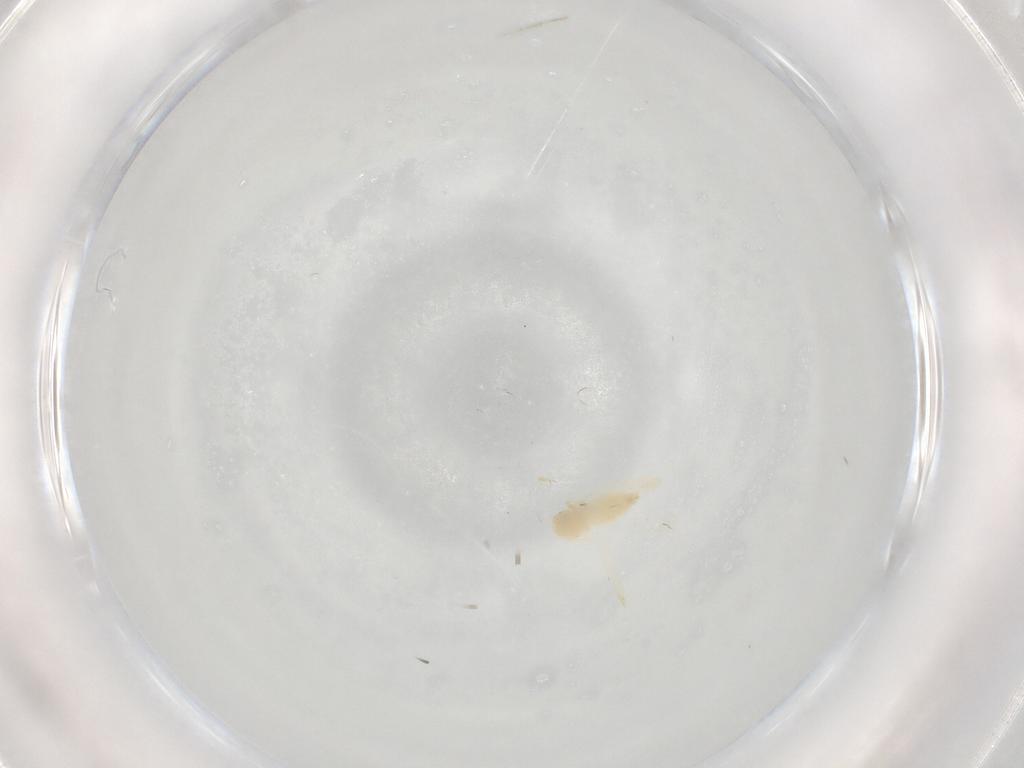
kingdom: Animalia
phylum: Arthropoda
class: Insecta
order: Hemiptera
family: Aleyrodidae
